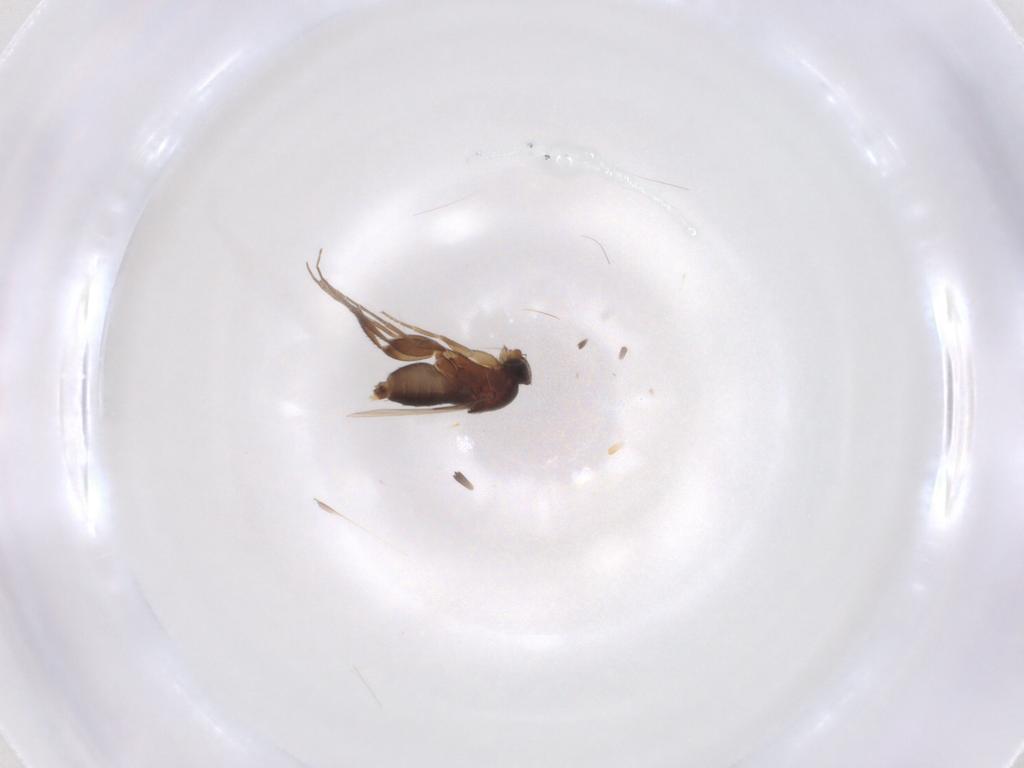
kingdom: Animalia
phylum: Arthropoda
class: Insecta
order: Diptera
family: Phoridae
